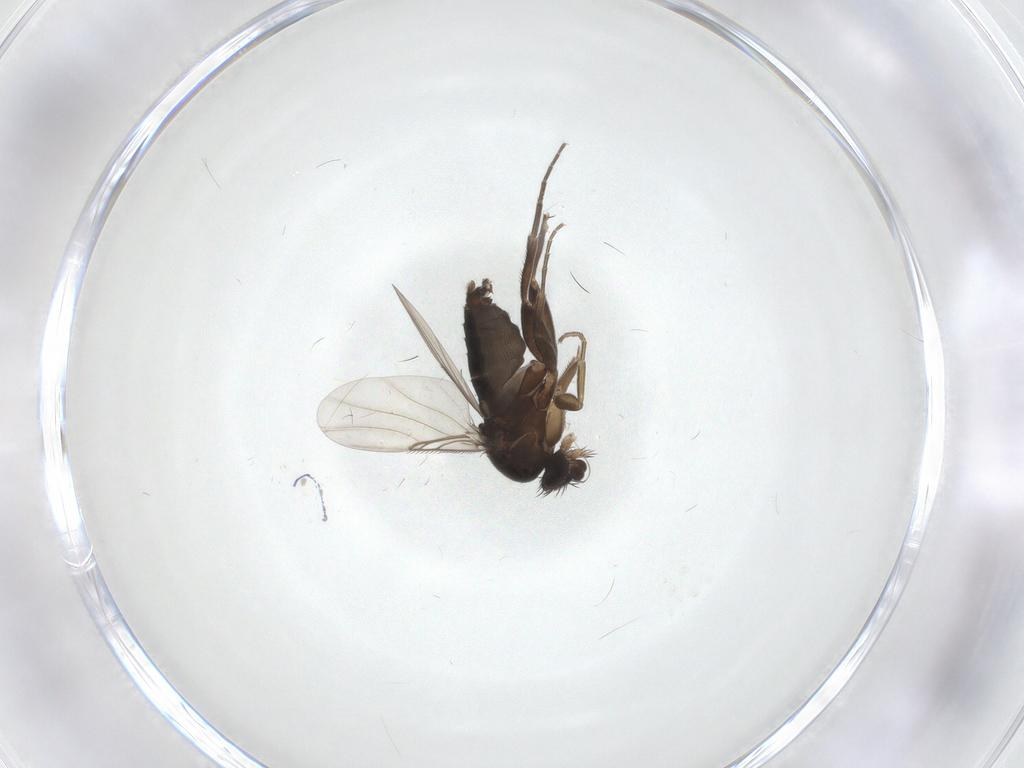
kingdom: Animalia
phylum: Arthropoda
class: Insecta
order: Diptera
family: Phoridae
